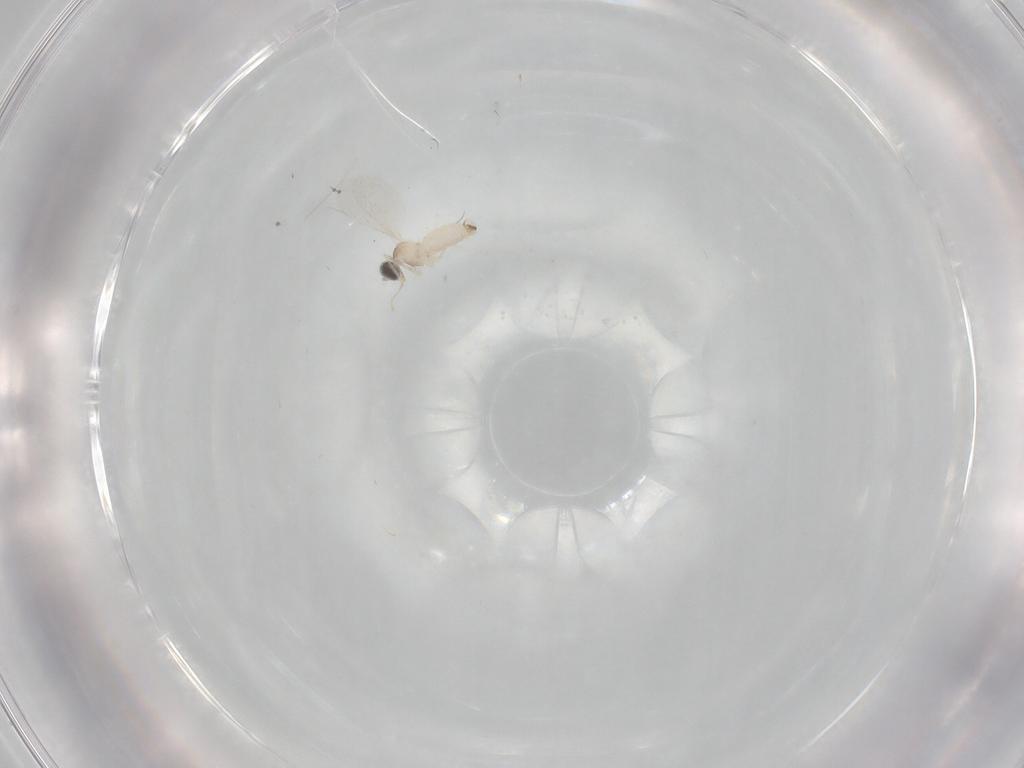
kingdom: Animalia
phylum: Arthropoda
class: Insecta
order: Diptera
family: Cecidomyiidae
